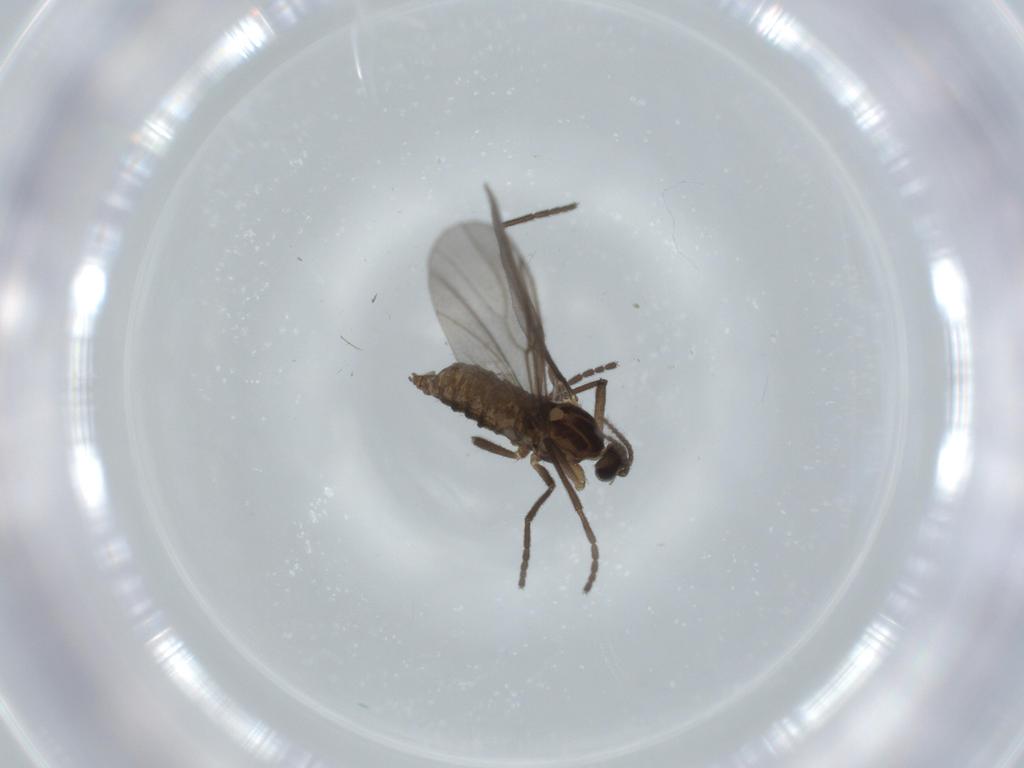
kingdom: Animalia
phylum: Arthropoda
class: Insecta
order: Diptera
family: Cecidomyiidae
